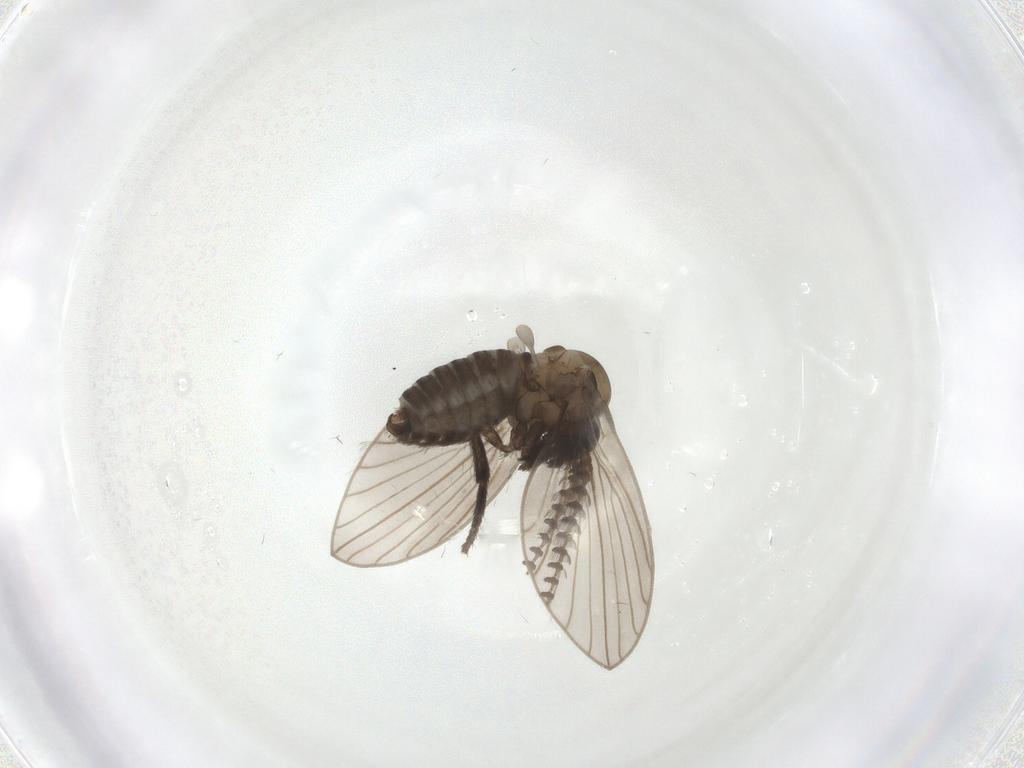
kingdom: Animalia
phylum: Arthropoda
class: Insecta
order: Diptera
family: Psychodidae
